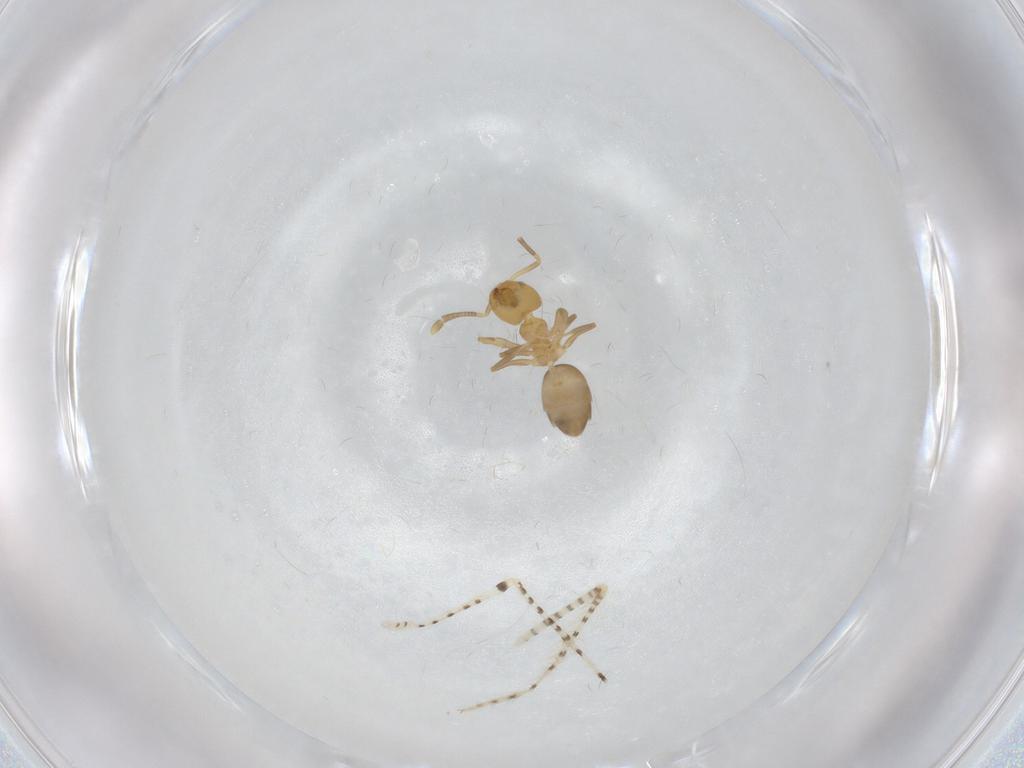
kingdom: Animalia
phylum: Arthropoda
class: Insecta
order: Hymenoptera
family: Formicidae
